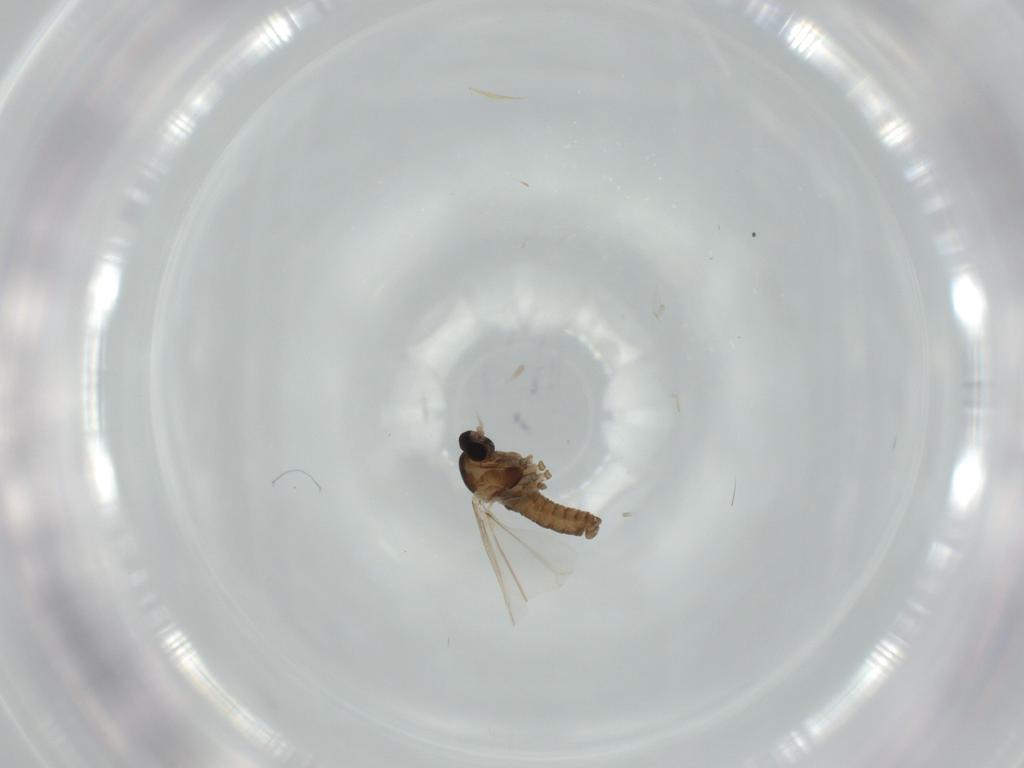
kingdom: Animalia
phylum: Arthropoda
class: Insecta
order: Diptera
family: Cecidomyiidae
